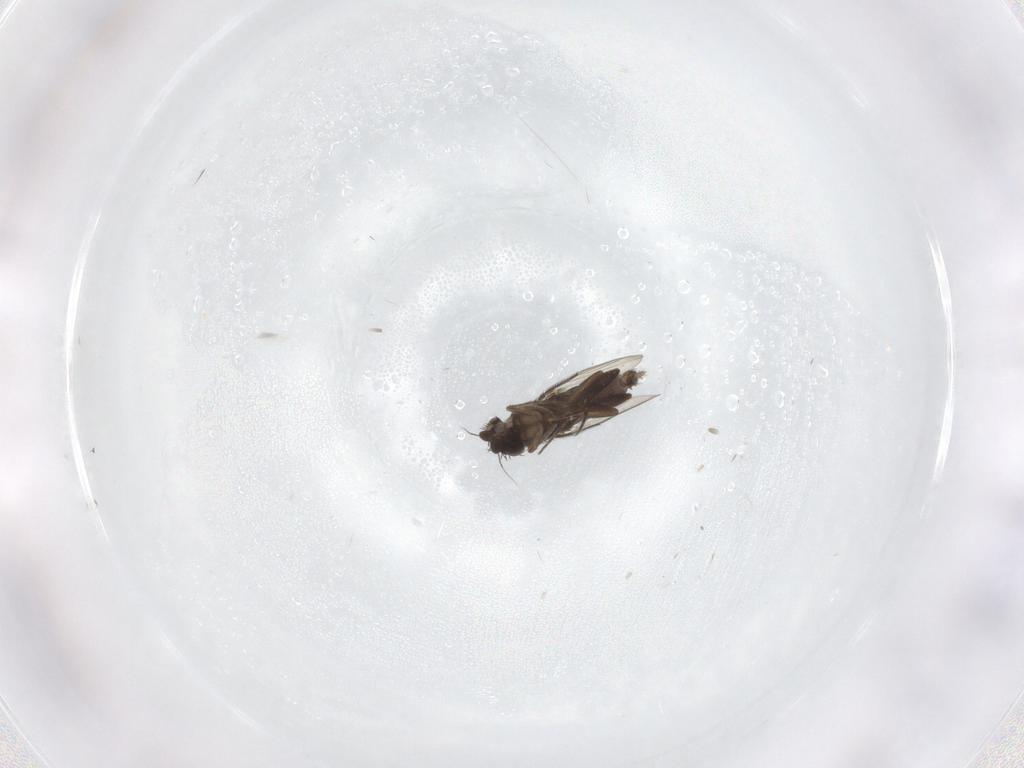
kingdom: Animalia
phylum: Arthropoda
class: Insecta
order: Diptera
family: Phoridae
